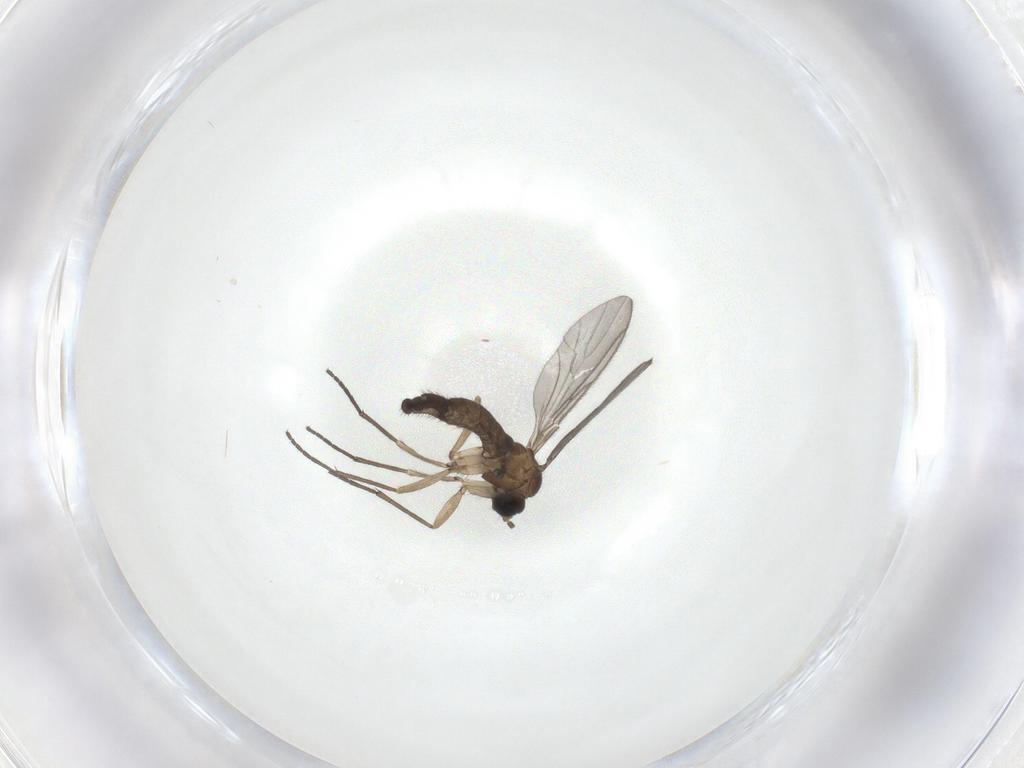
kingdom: Animalia
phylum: Arthropoda
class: Insecta
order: Diptera
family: Sciaridae
